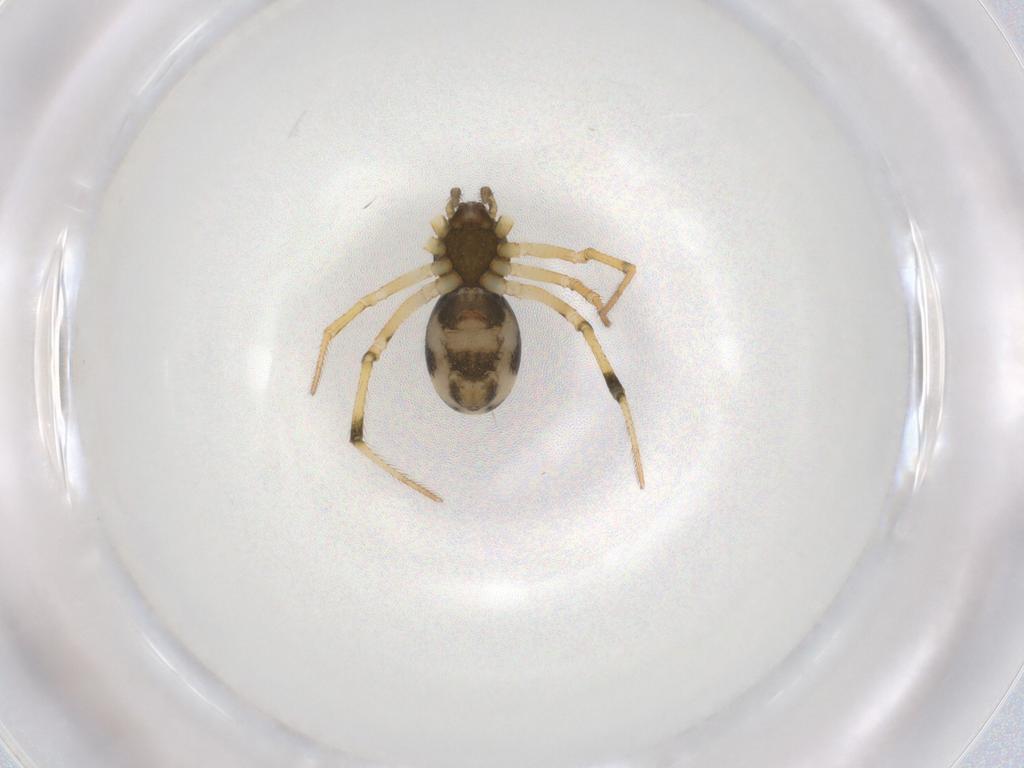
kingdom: Animalia
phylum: Arthropoda
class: Arachnida
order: Araneae
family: Theridiidae
